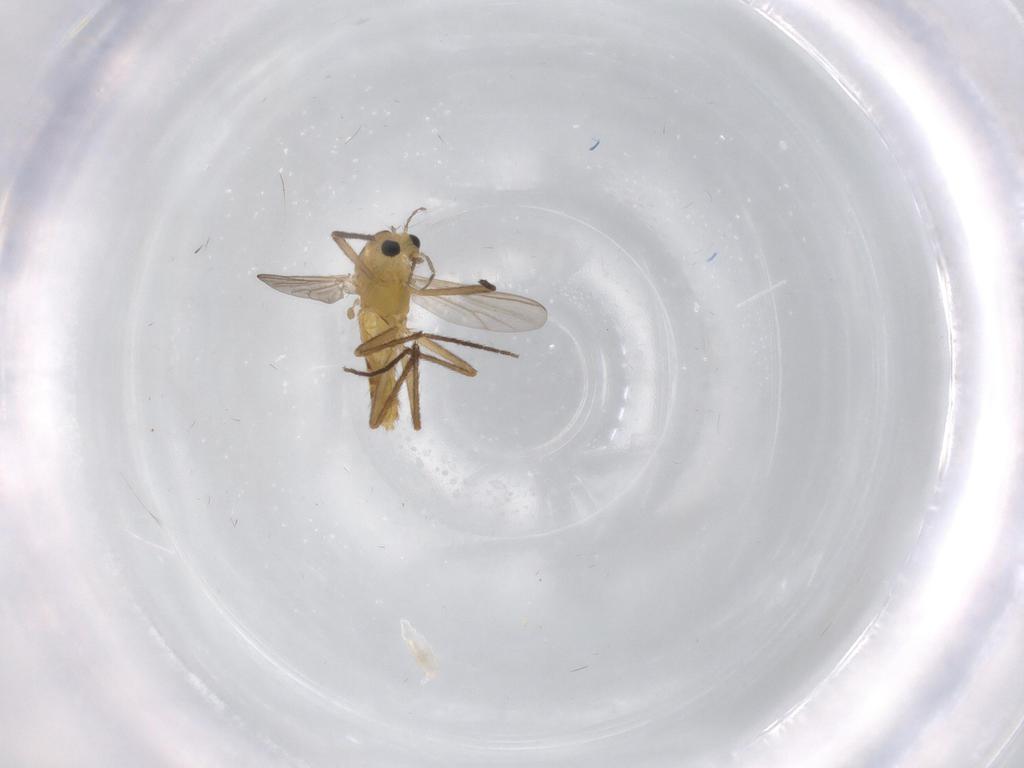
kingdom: Animalia
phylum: Arthropoda
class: Insecta
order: Diptera
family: Chironomidae
